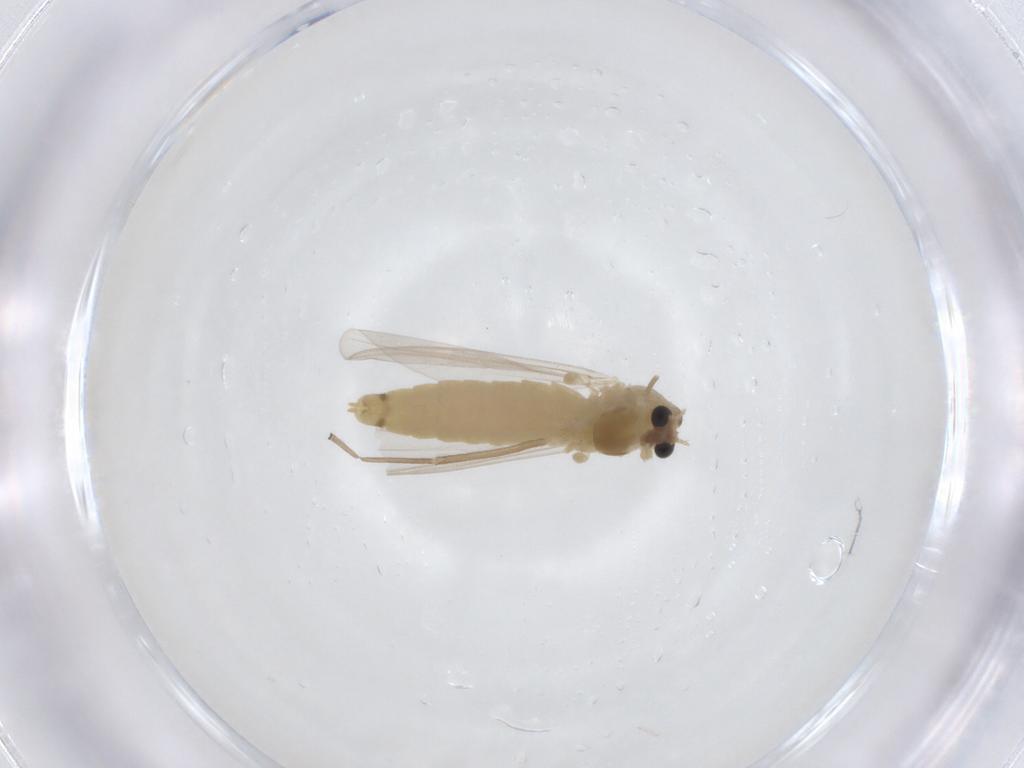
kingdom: Animalia
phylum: Arthropoda
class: Insecta
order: Diptera
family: Chironomidae
